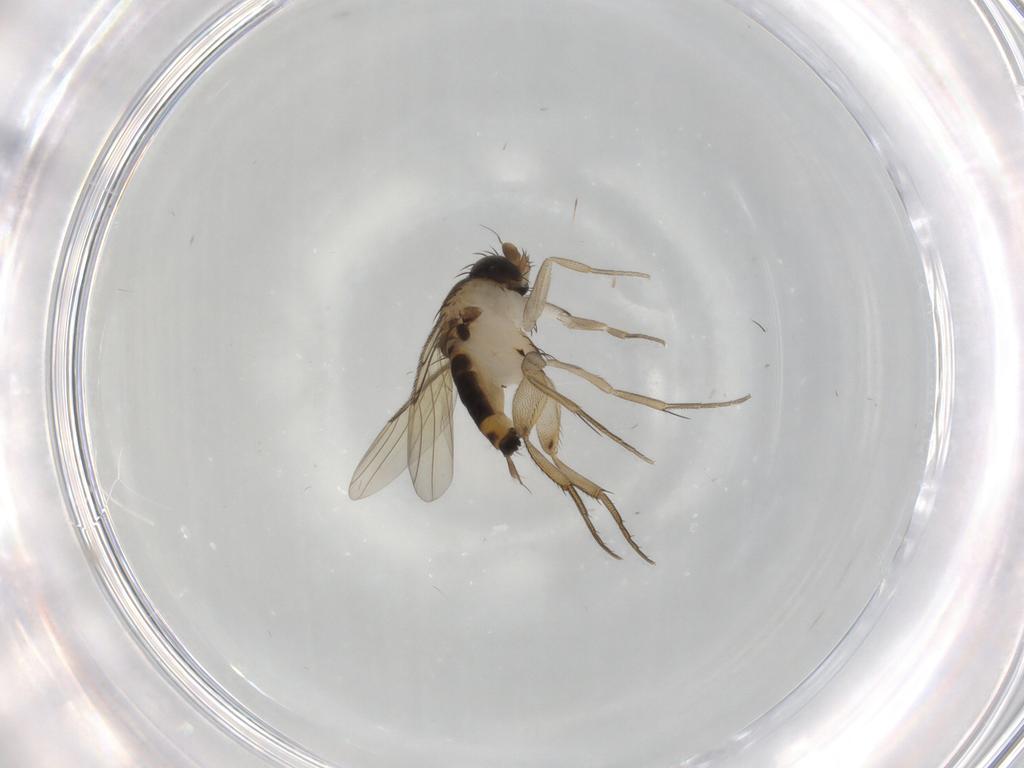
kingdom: Animalia
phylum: Arthropoda
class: Insecta
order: Diptera
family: Phoridae
